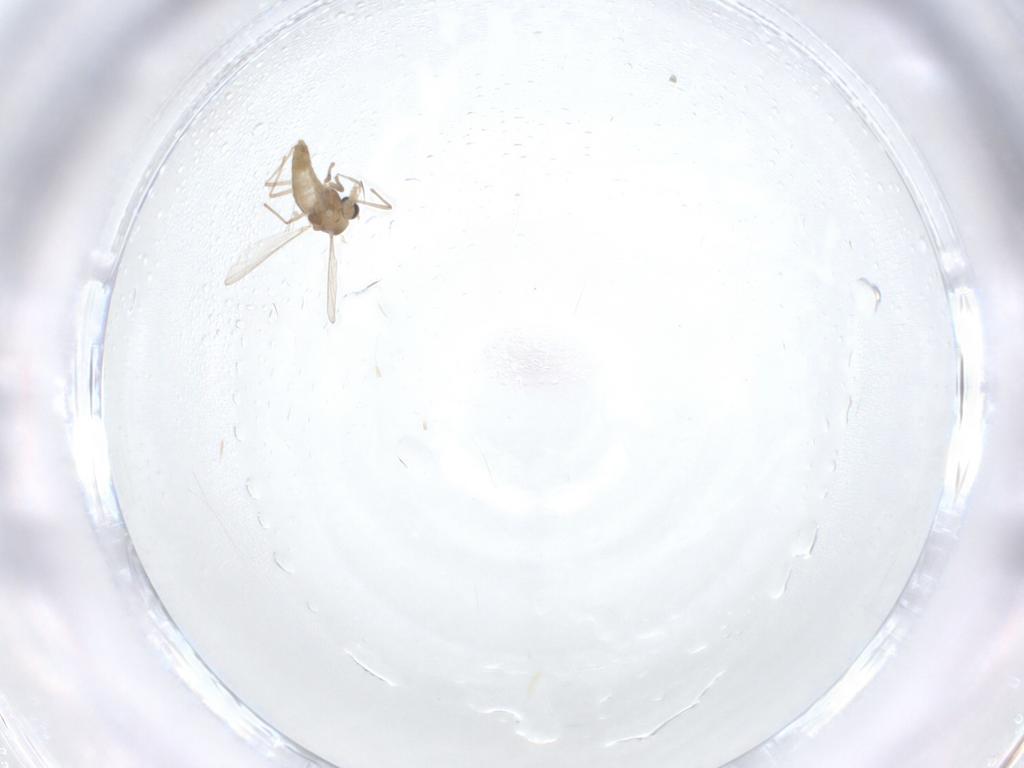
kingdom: Animalia
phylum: Arthropoda
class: Insecta
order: Diptera
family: Chironomidae
